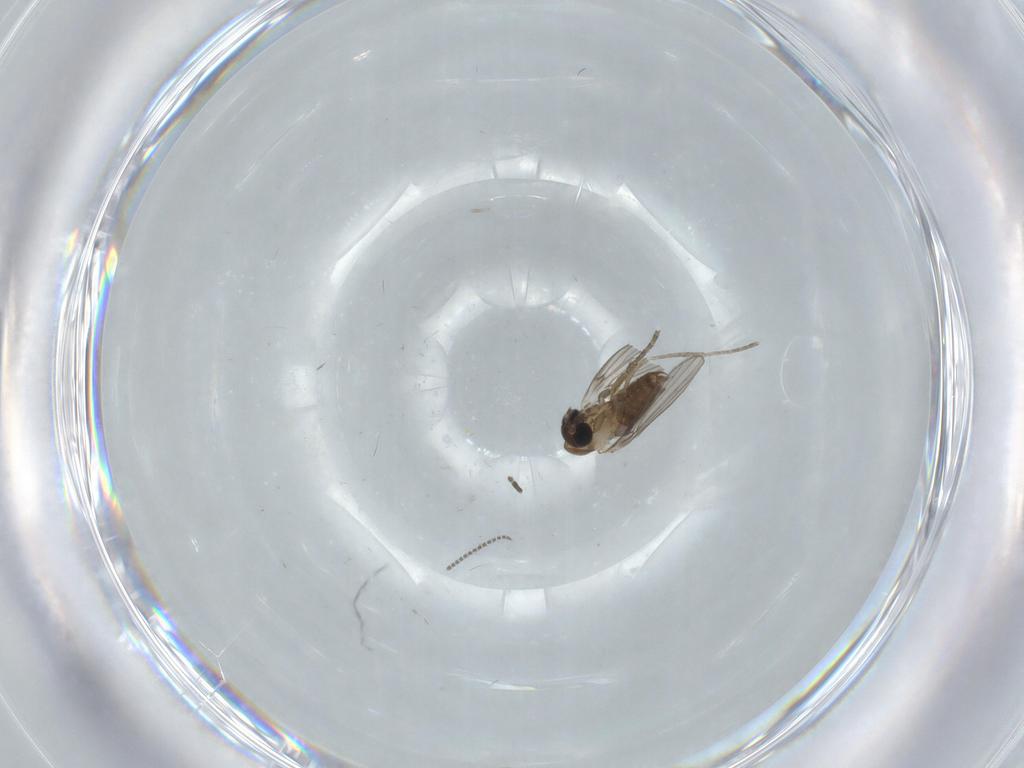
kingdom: Animalia
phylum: Arthropoda
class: Insecta
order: Diptera
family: Psychodidae
